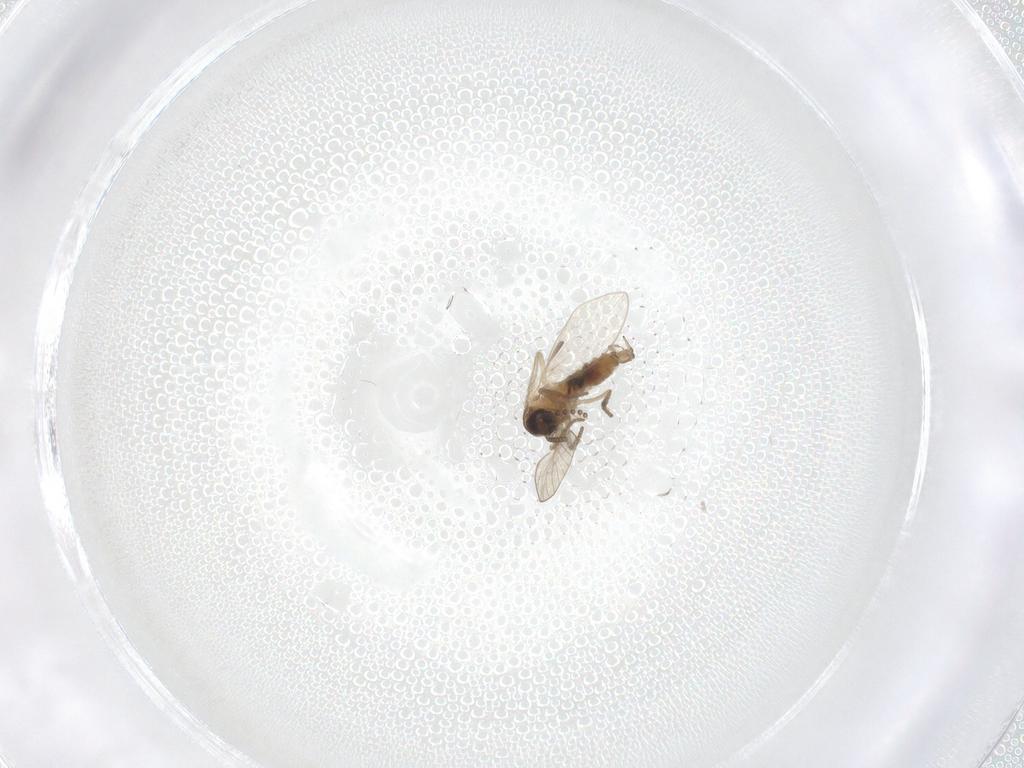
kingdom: Animalia
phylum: Arthropoda
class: Insecta
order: Diptera
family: Psychodidae
